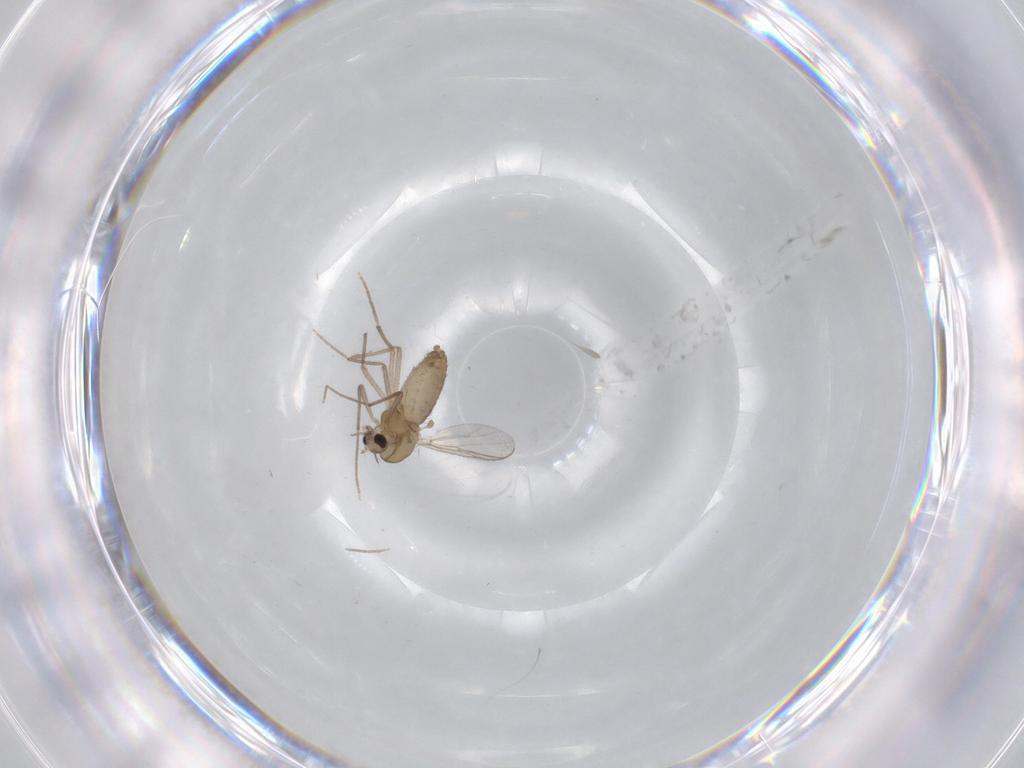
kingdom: Animalia
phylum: Arthropoda
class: Insecta
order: Diptera
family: Chironomidae
